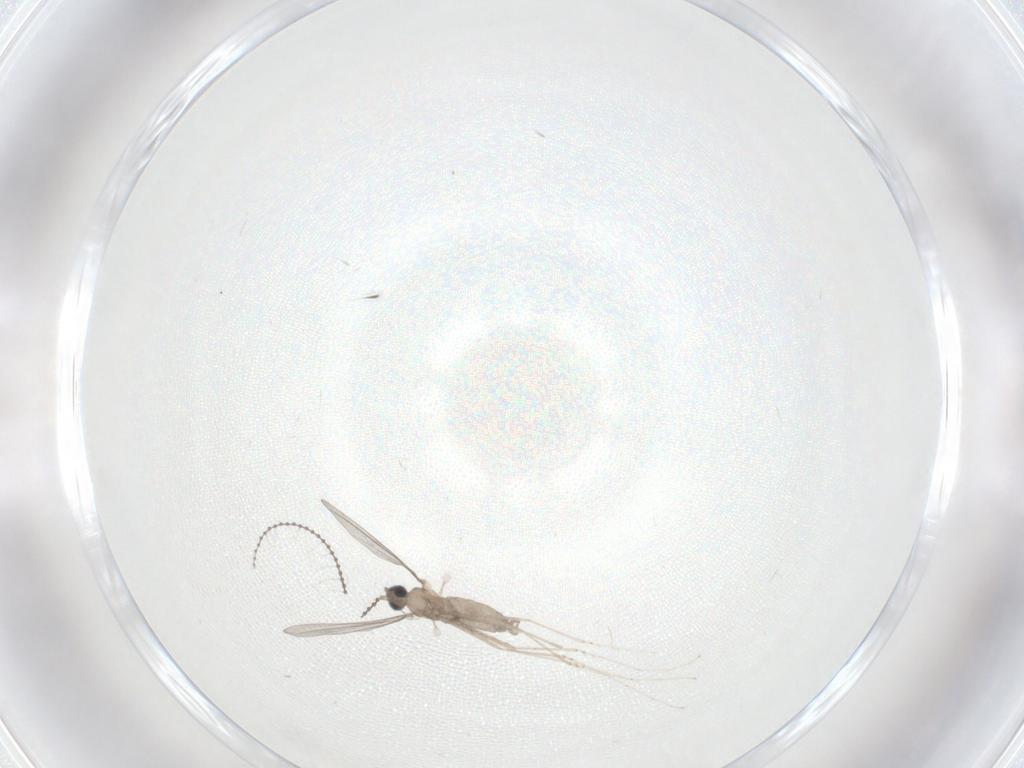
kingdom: Animalia
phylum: Arthropoda
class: Insecta
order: Diptera
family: Cecidomyiidae
